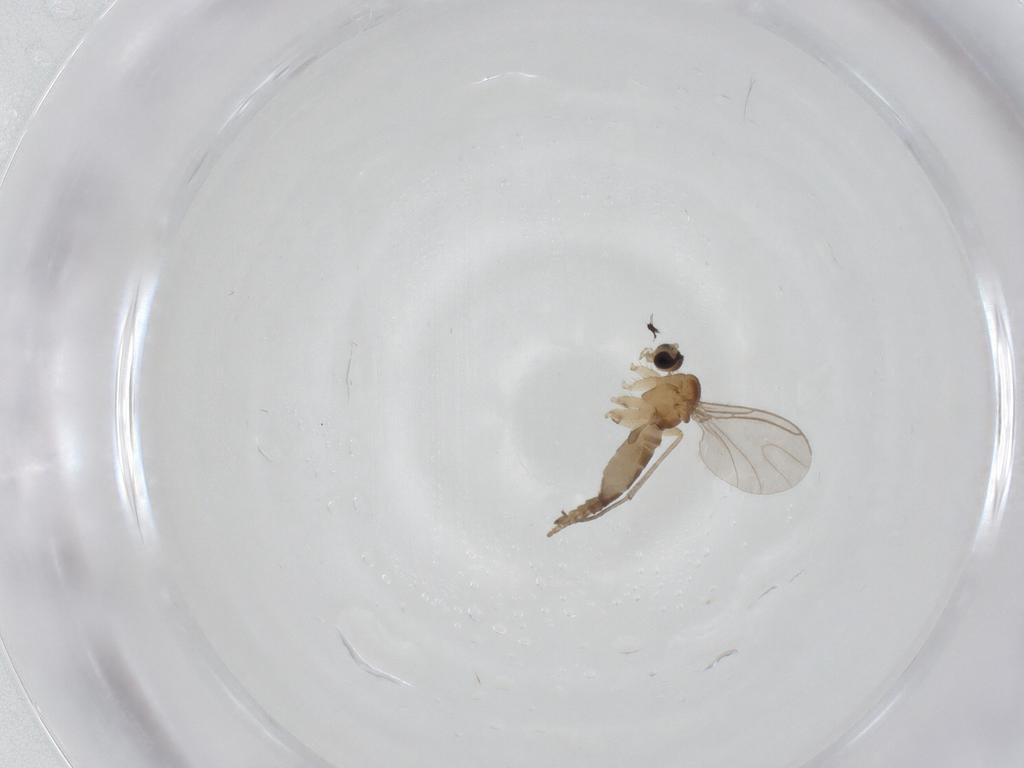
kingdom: Animalia
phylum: Arthropoda
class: Insecta
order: Diptera
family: Sciaridae
